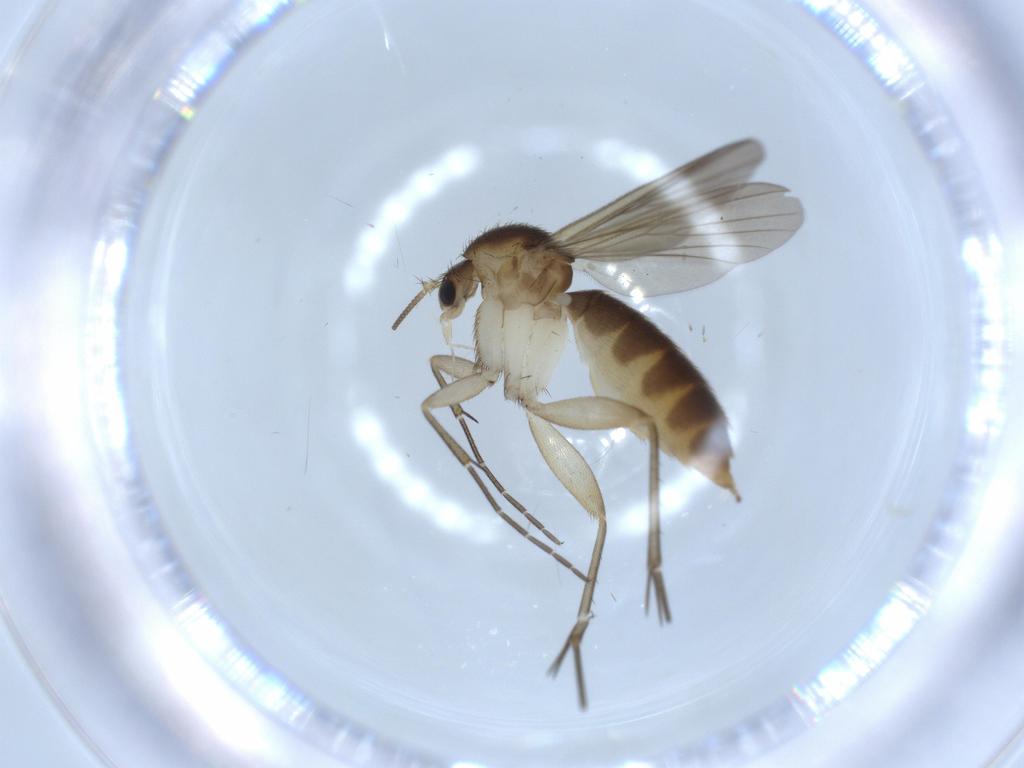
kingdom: Animalia
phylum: Arthropoda
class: Insecta
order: Diptera
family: Mycetophilidae
